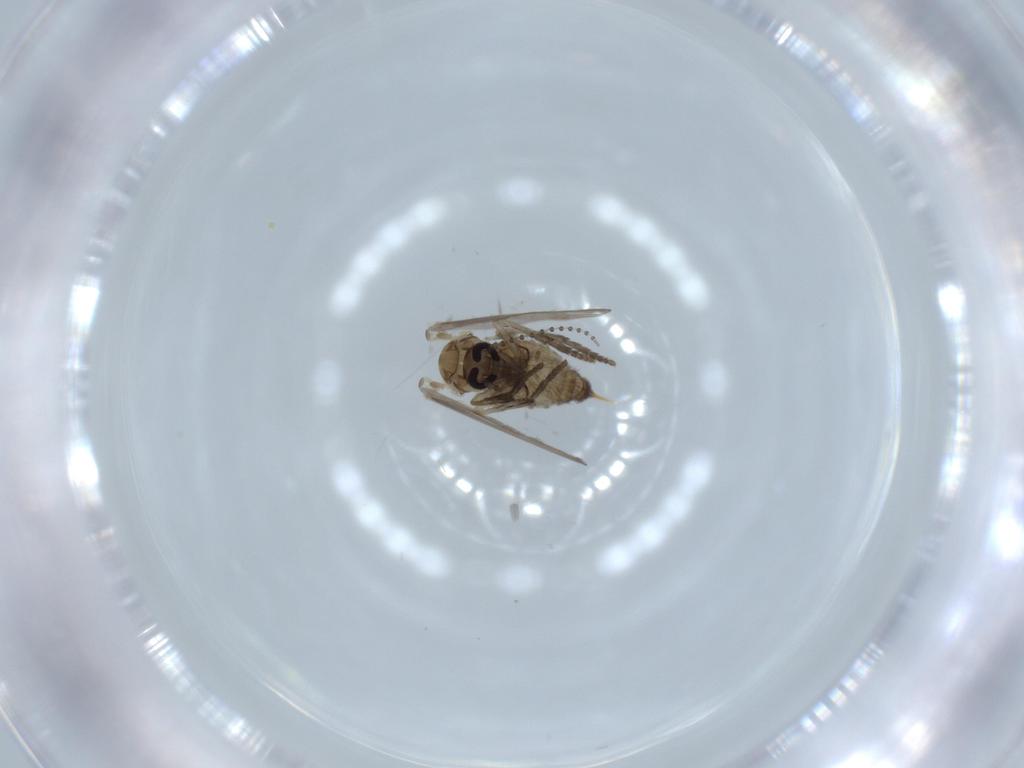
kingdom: Animalia
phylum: Arthropoda
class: Insecta
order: Diptera
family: Psychodidae
